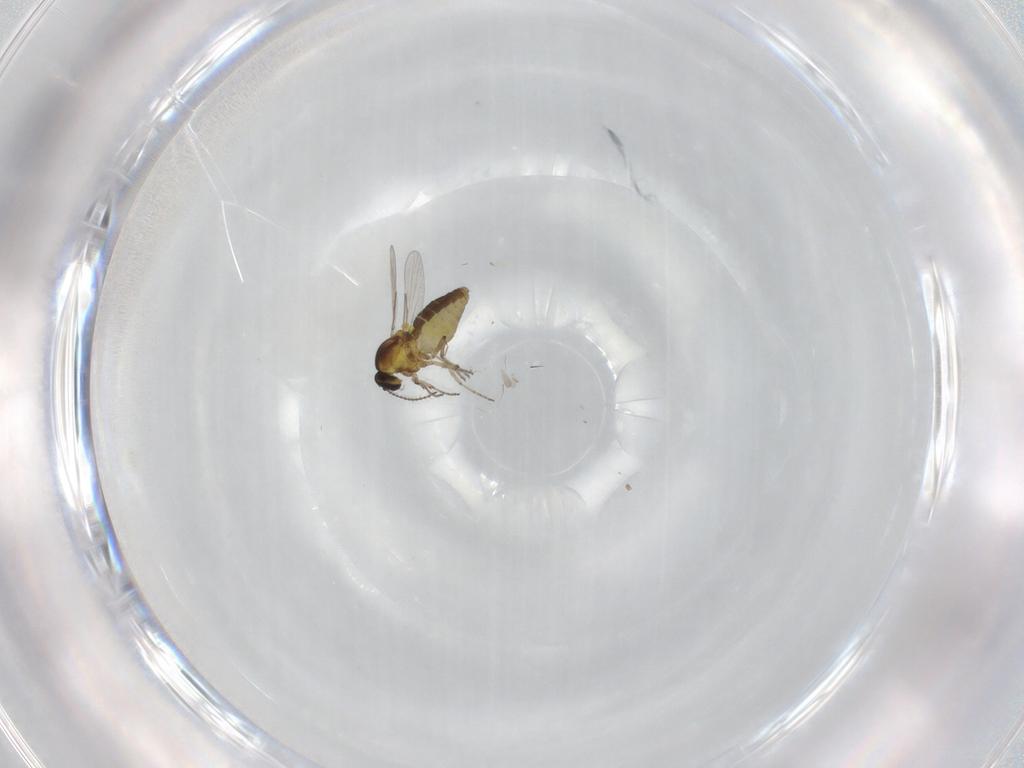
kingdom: Animalia
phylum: Arthropoda
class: Insecta
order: Diptera
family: Ceratopogonidae
